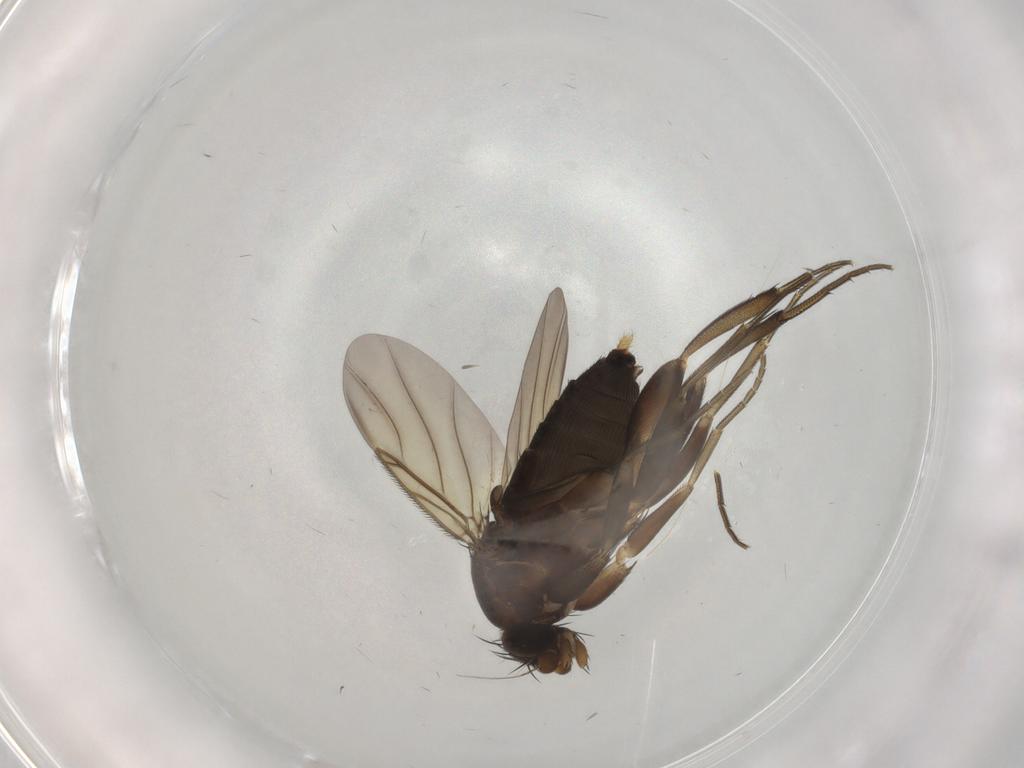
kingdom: Animalia
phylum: Arthropoda
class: Insecta
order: Diptera
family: Phoridae
